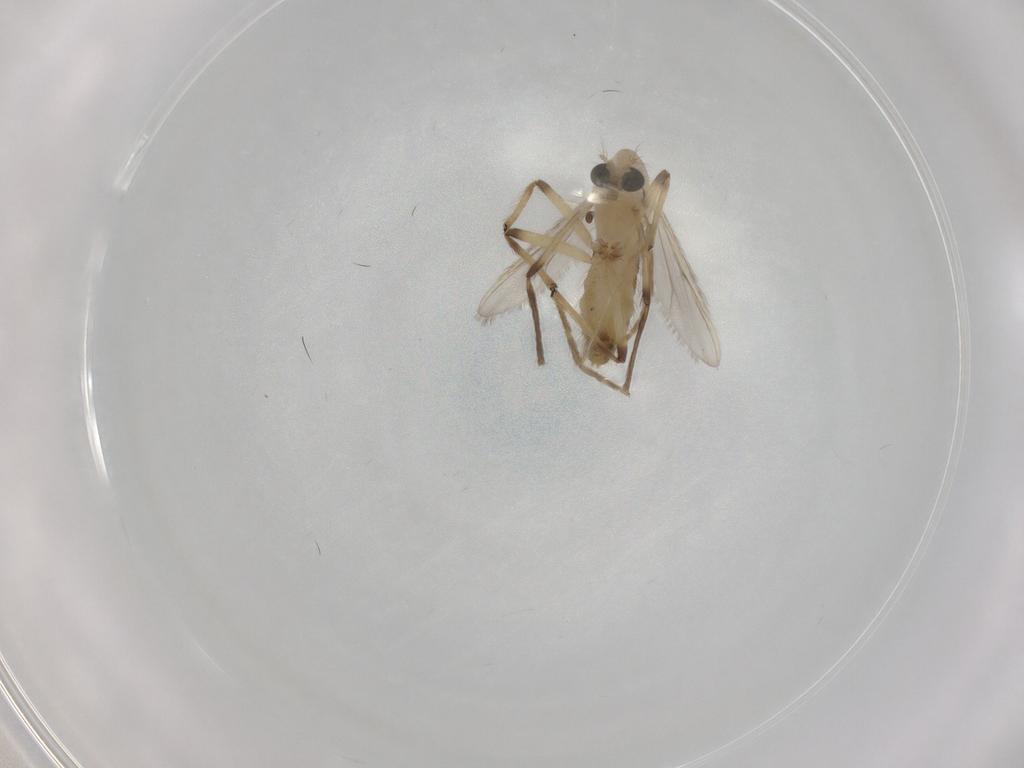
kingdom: Animalia
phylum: Arthropoda
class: Insecta
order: Diptera
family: Chironomidae
